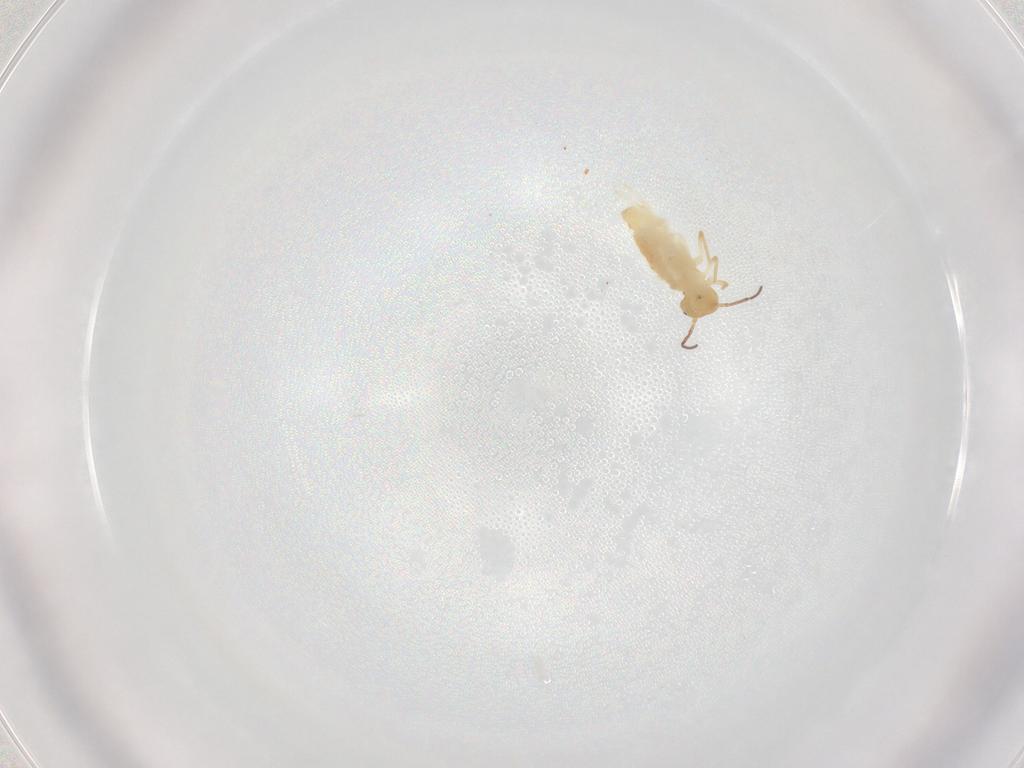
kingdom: Animalia
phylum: Arthropoda
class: Collembola
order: Symphypleona
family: Bourletiellidae
